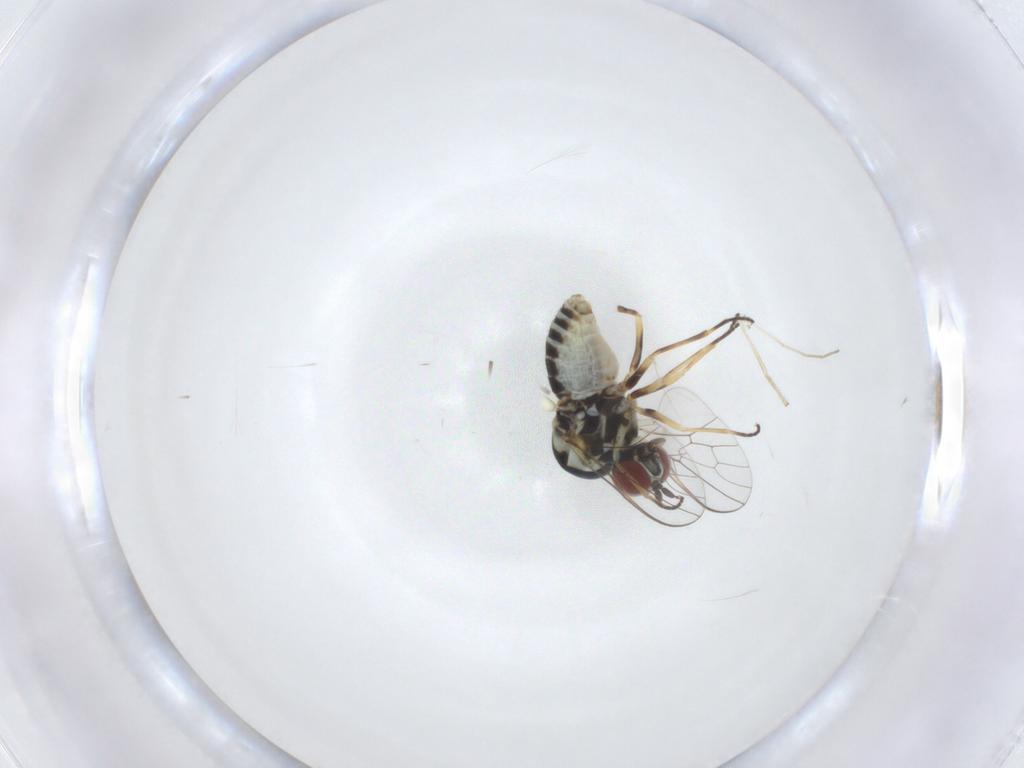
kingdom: Animalia
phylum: Arthropoda
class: Insecta
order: Diptera
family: Bombyliidae
